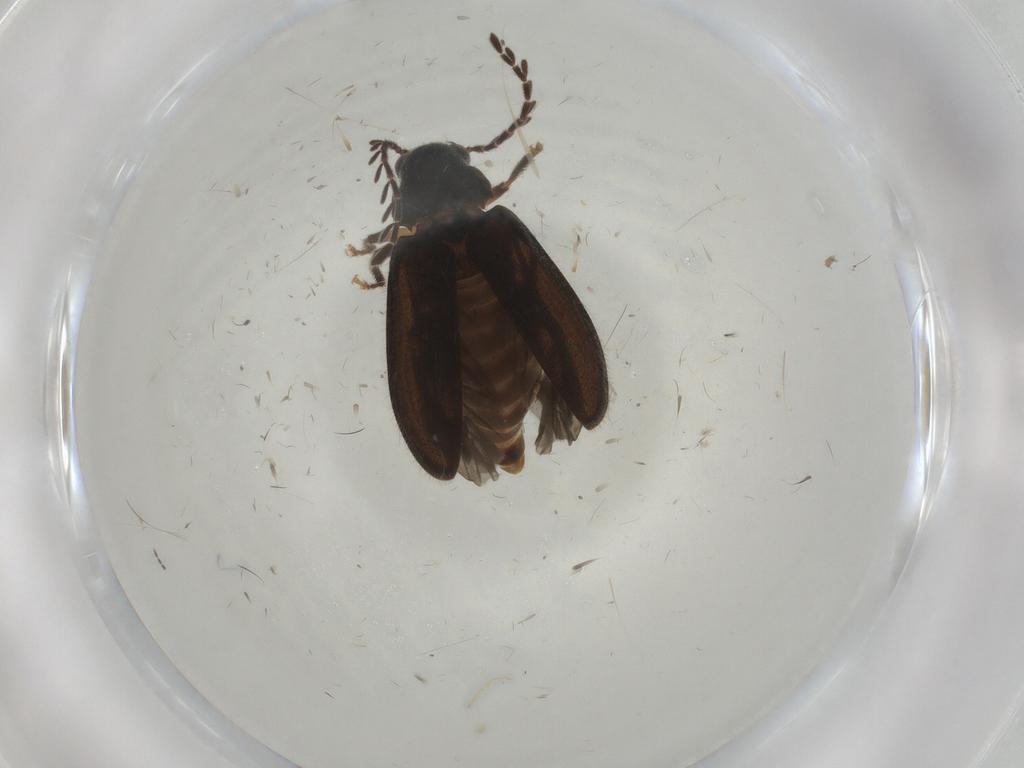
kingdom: Animalia
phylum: Arthropoda
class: Insecta
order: Coleoptera
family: Ptilodactylidae
